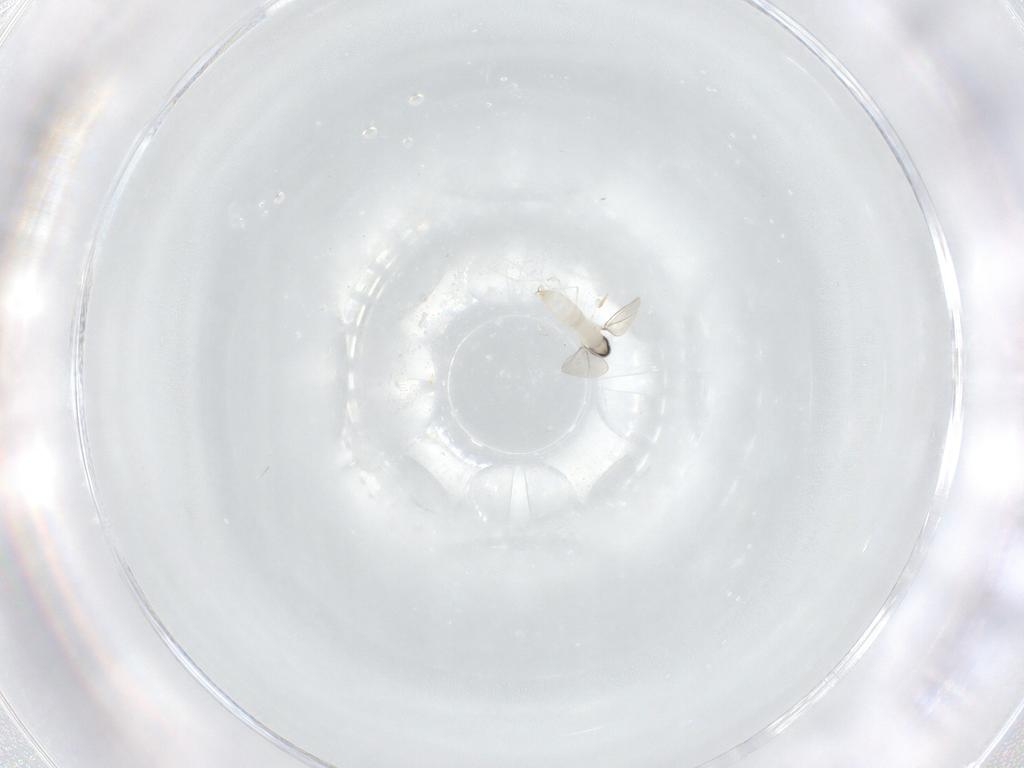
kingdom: Animalia
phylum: Arthropoda
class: Insecta
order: Diptera
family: Cecidomyiidae
